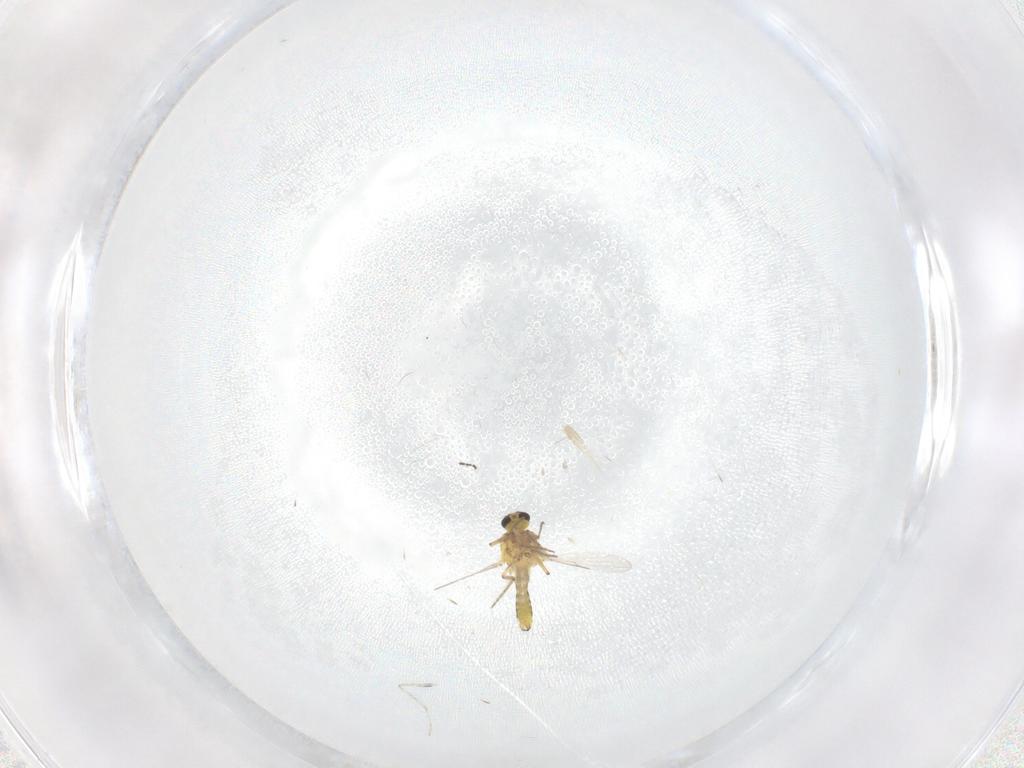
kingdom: Animalia
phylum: Arthropoda
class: Insecta
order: Diptera
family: Ceratopogonidae
